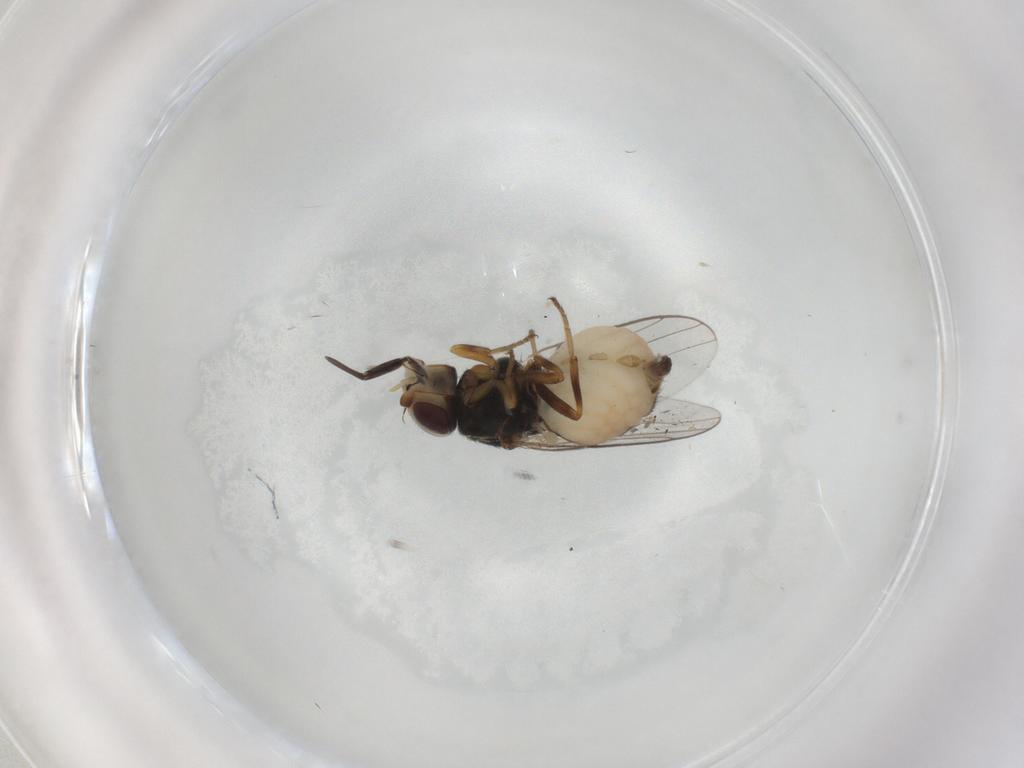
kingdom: Animalia
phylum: Arthropoda
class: Insecta
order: Diptera
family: Chloropidae
